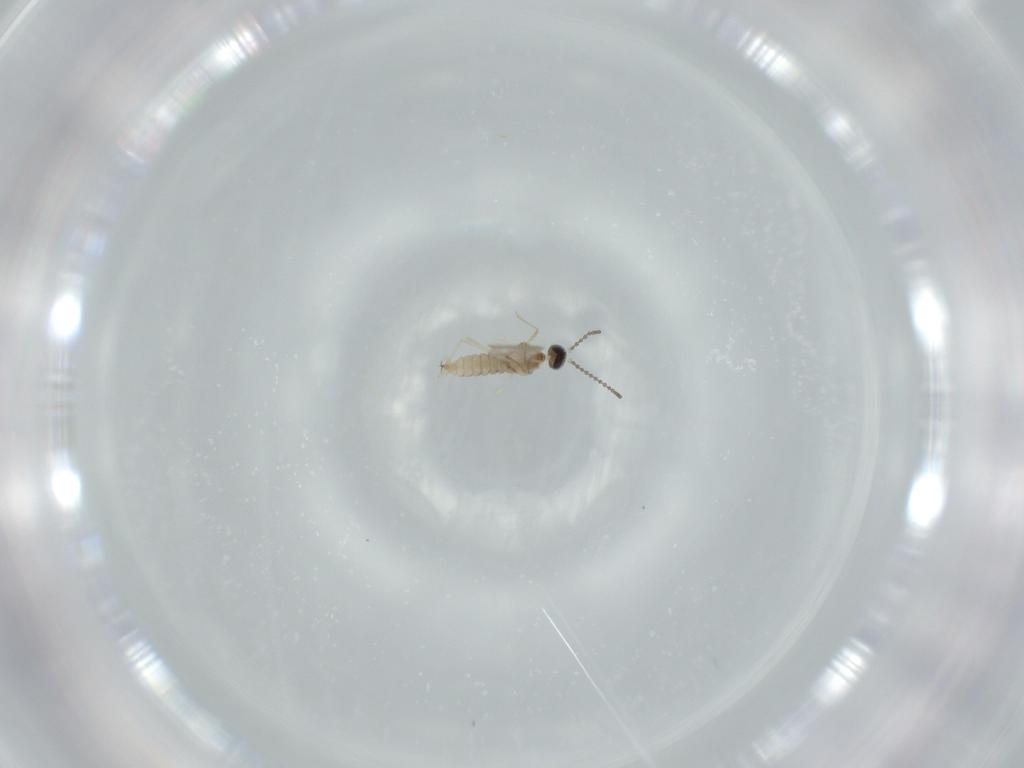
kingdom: Animalia
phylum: Arthropoda
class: Insecta
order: Diptera
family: Cecidomyiidae
